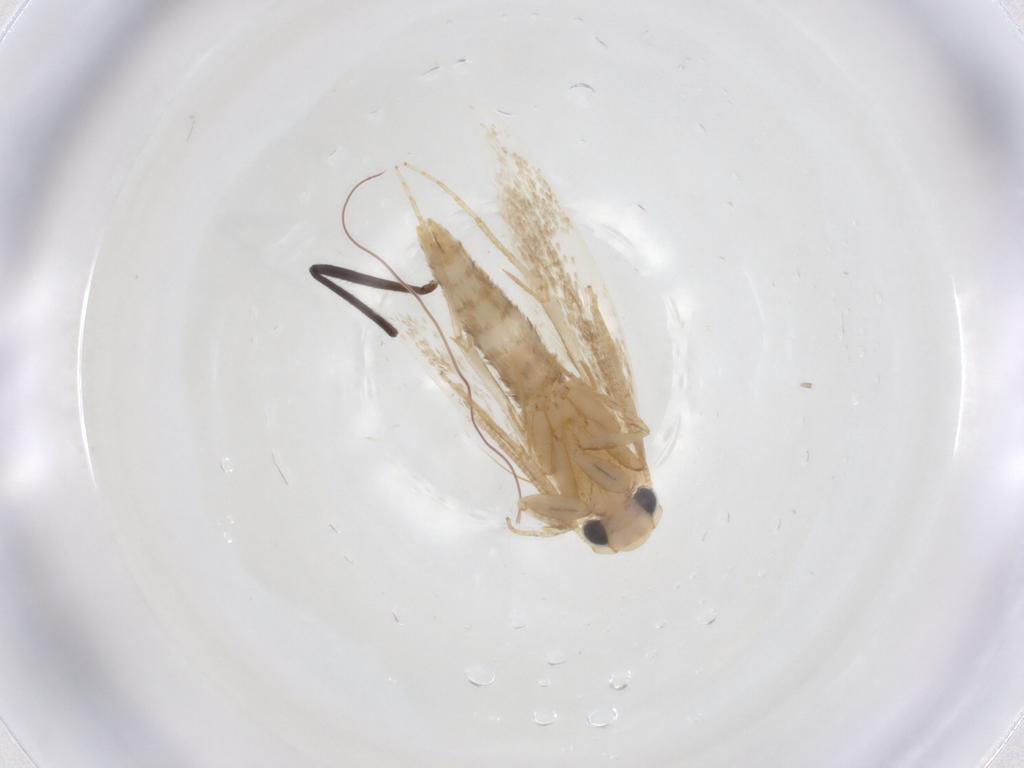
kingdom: Animalia
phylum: Arthropoda
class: Insecta
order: Lepidoptera
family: Tineidae
